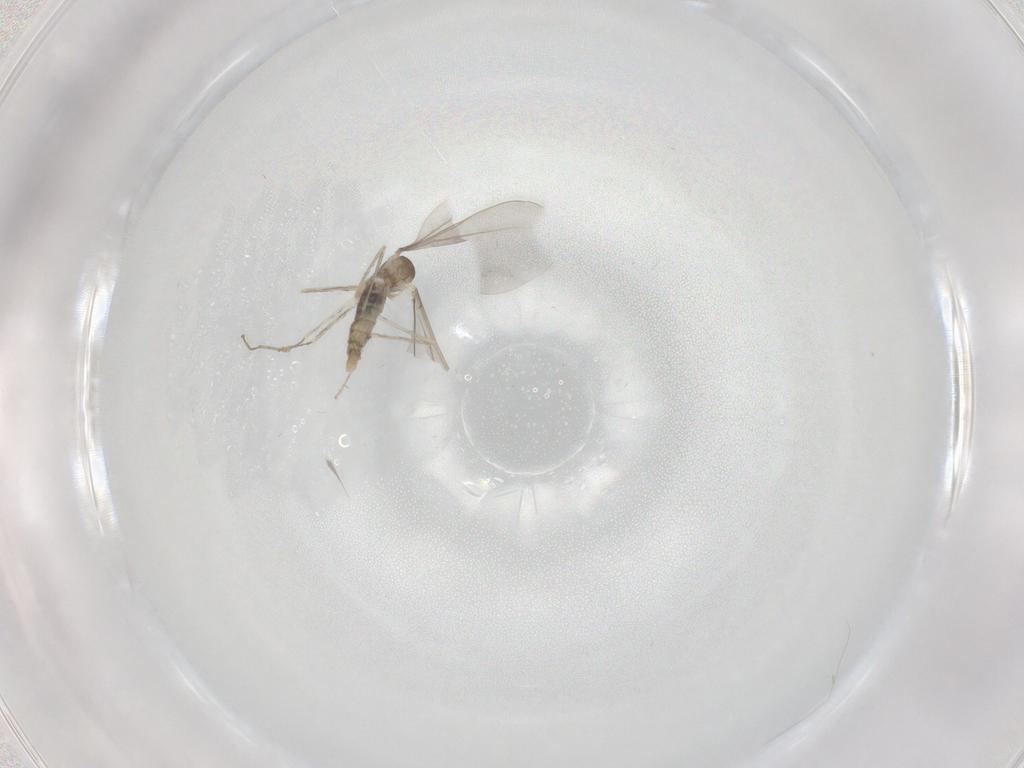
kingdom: Animalia
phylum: Arthropoda
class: Insecta
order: Diptera
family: Cecidomyiidae
